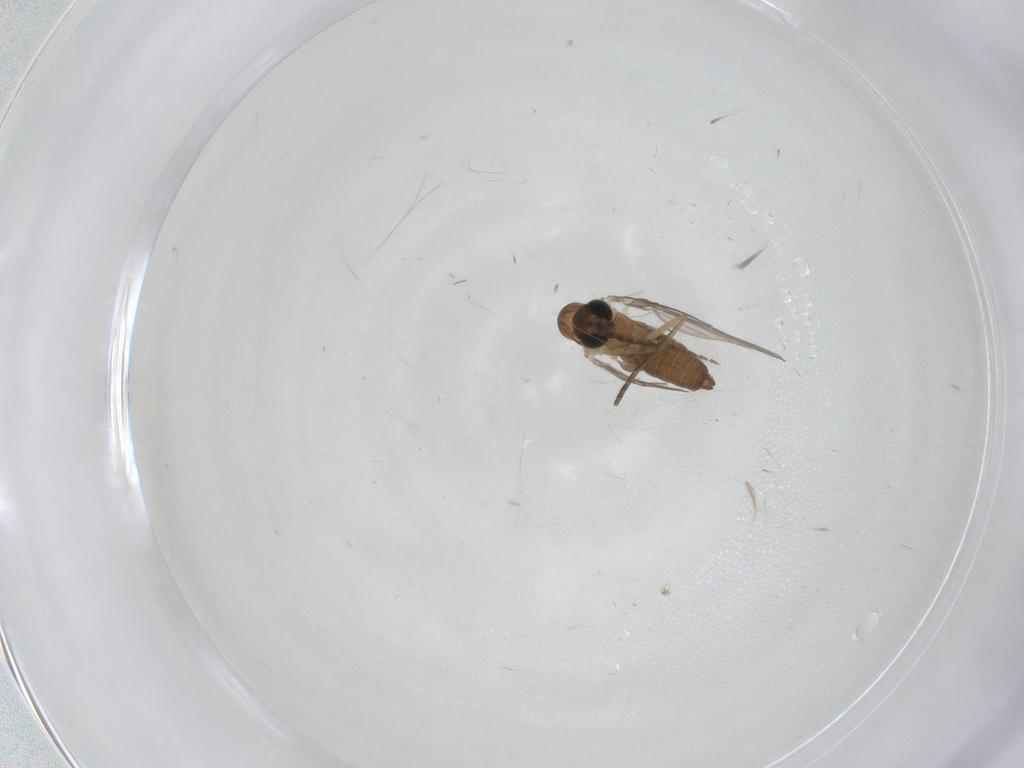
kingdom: Animalia
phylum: Arthropoda
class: Insecta
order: Diptera
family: Chironomidae
